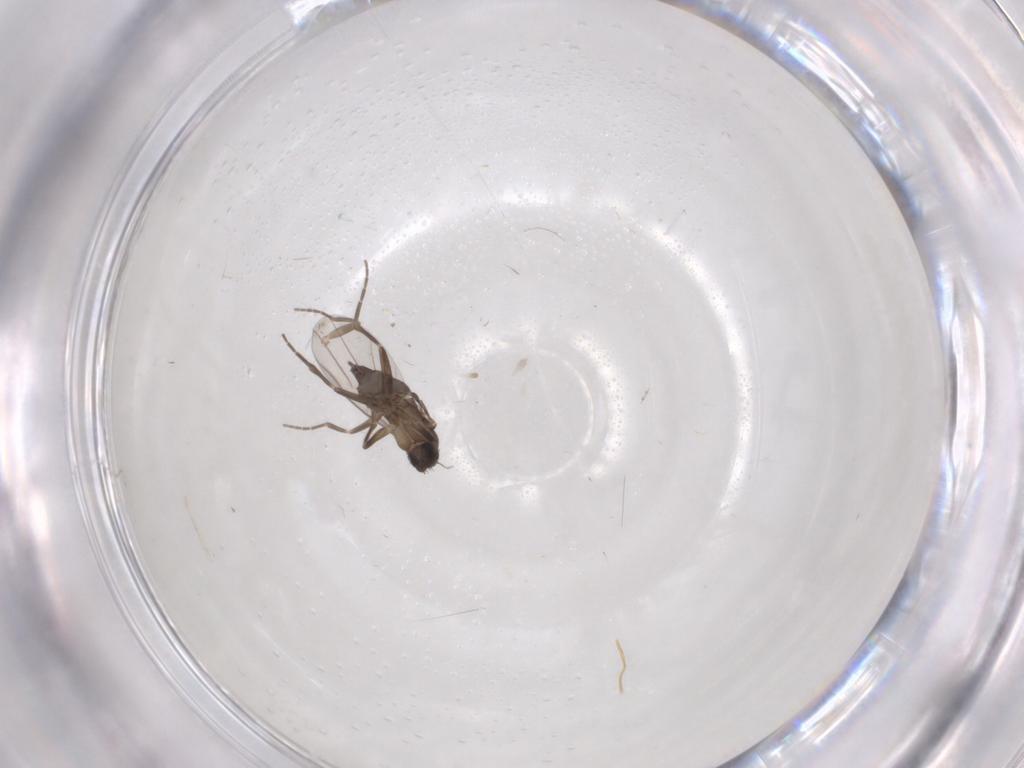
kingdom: Animalia
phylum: Arthropoda
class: Insecta
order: Diptera
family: Cecidomyiidae
